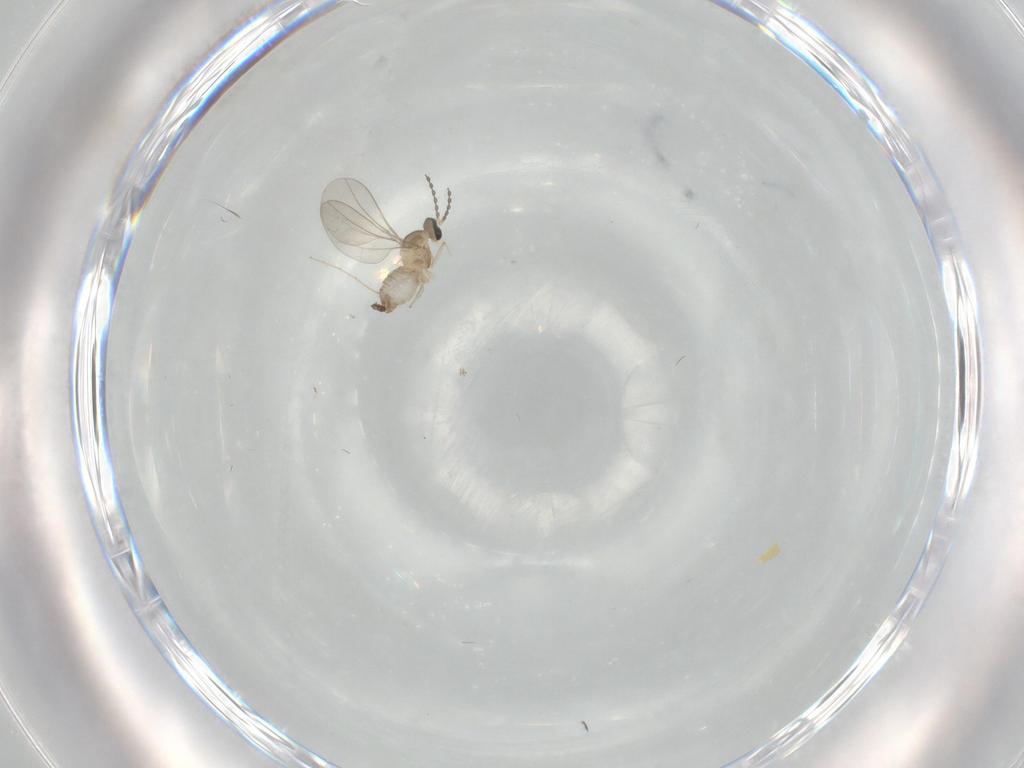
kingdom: Animalia
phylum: Arthropoda
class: Insecta
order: Diptera
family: Cecidomyiidae
